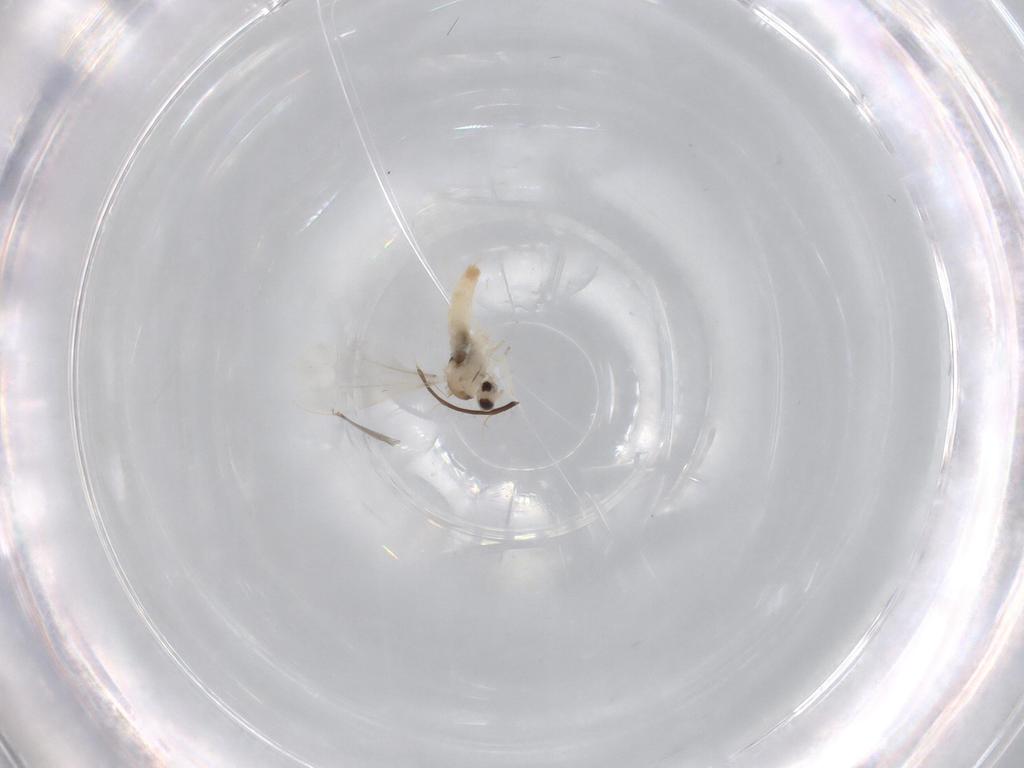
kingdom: Animalia
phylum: Arthropoda
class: Insecta
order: Diptera
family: Cecidomyiidae
